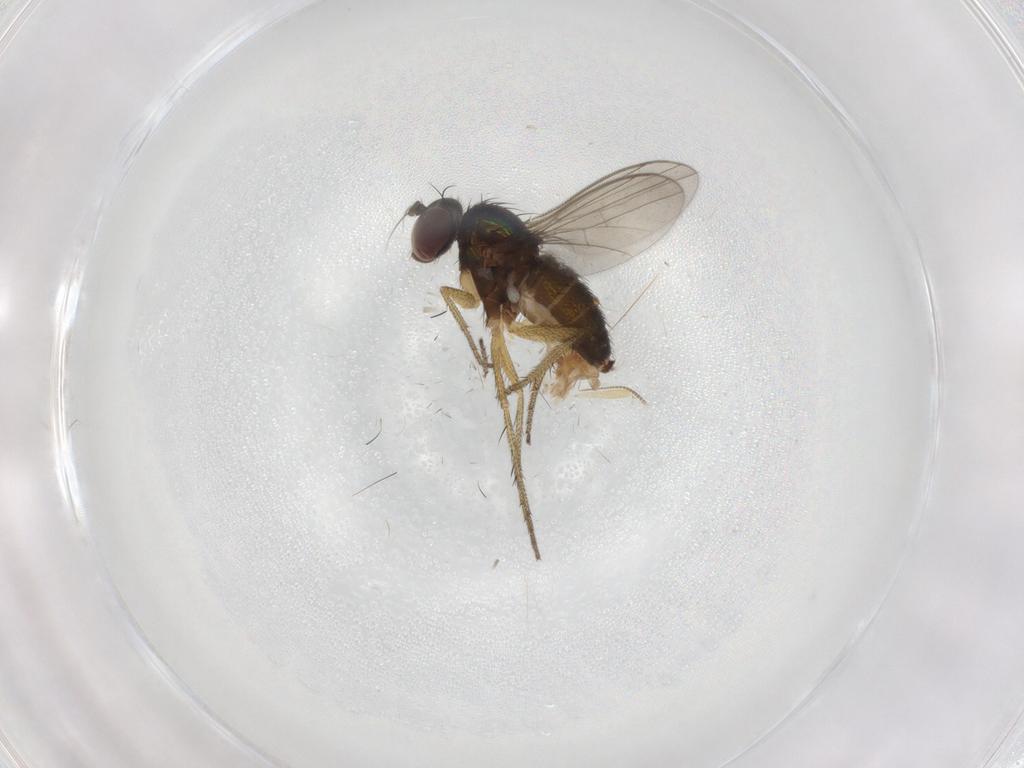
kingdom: Animalia
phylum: Arthropoda
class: Insecta
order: Diptera
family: Dolichopodidae
